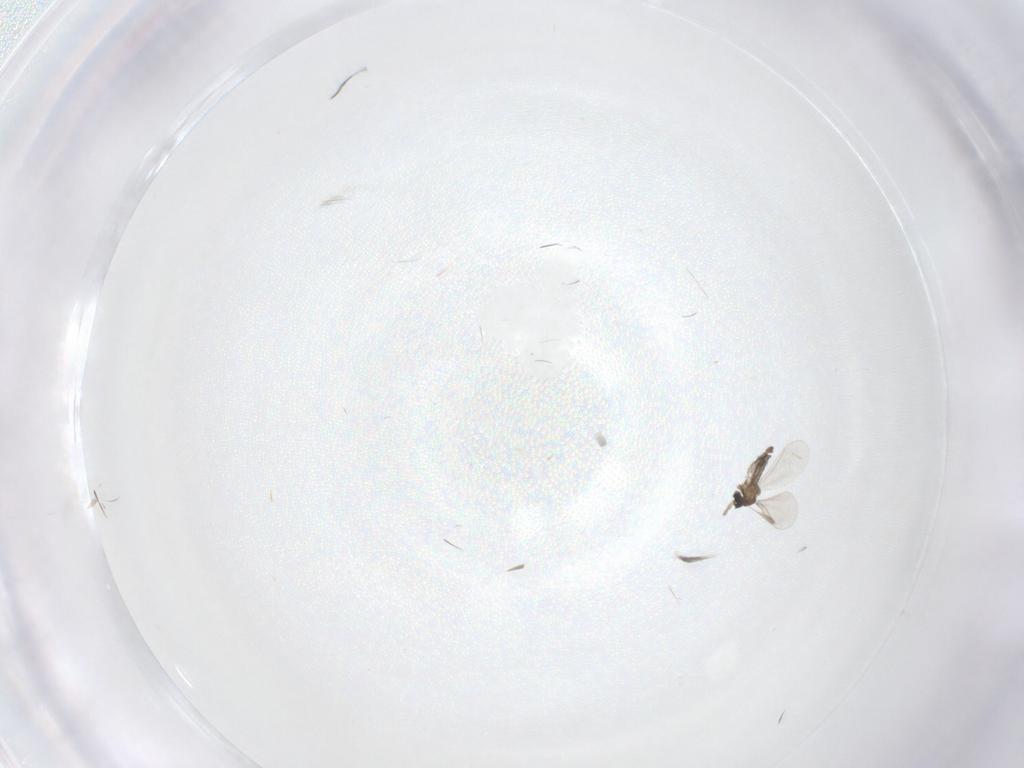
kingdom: Animalia
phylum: Arthropoda
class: Insecta
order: Diptera
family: Cecidomyiidae
